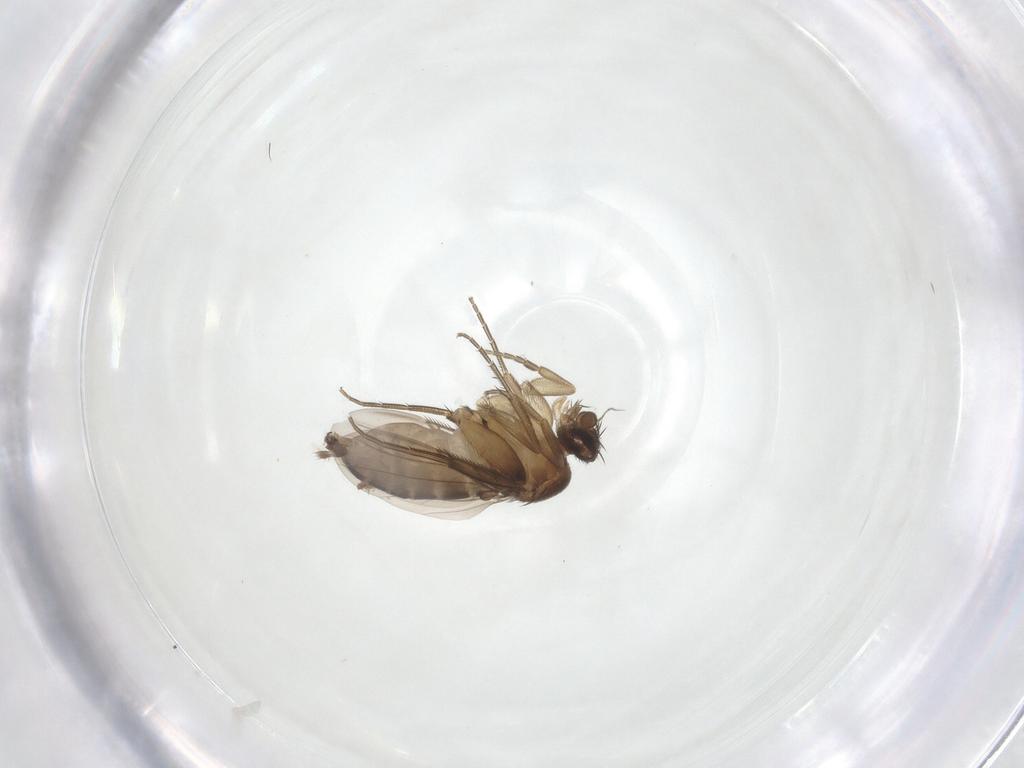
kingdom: Animalia
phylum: Arthropoda
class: Insecta
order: Diptera
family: Cecidomyiidae
